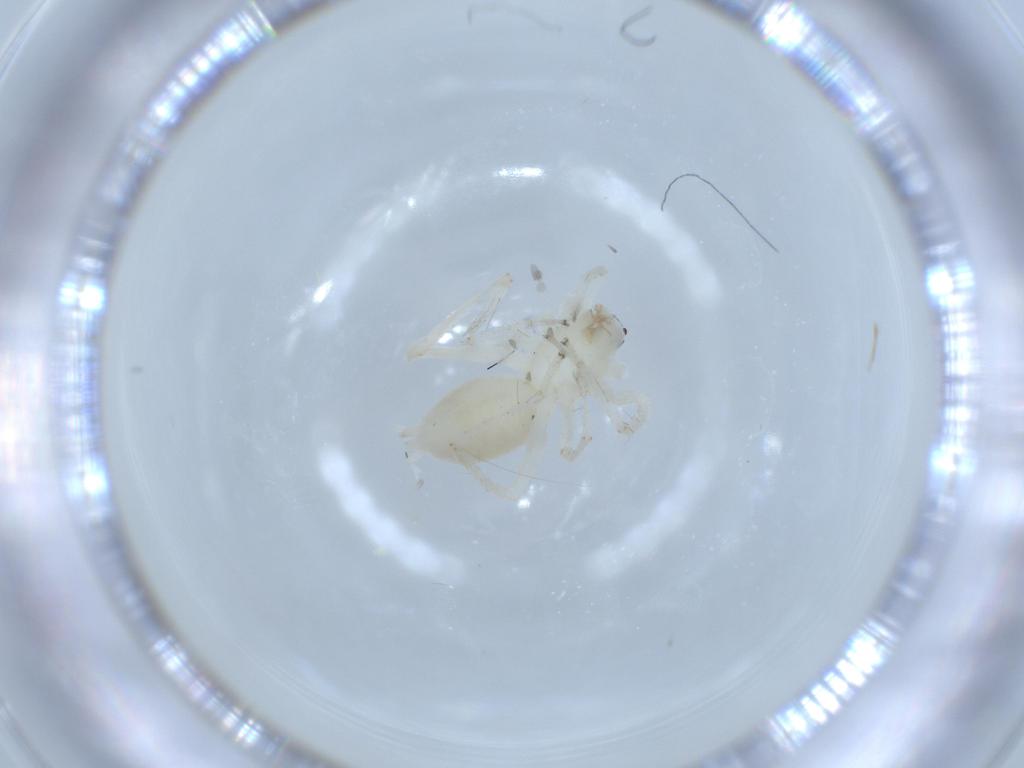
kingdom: Animalia
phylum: Arthropoda
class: Arachnida
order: Araneae
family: Anyphaenidae
